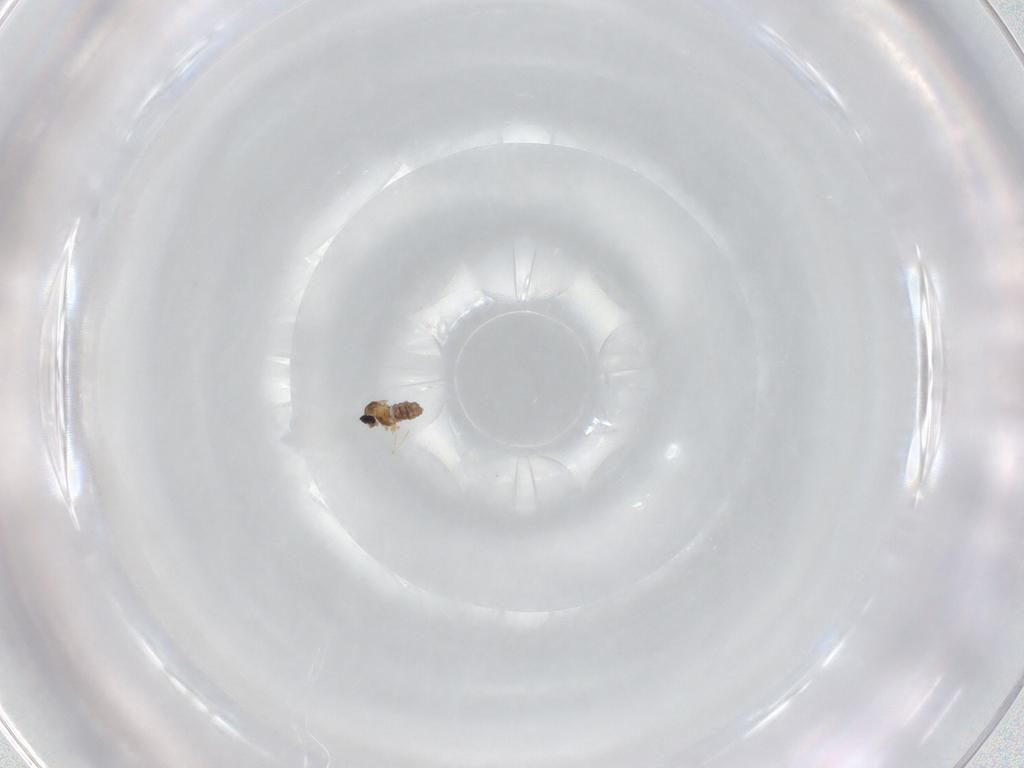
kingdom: Animalia
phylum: Arthropoda
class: Insecta
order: Diptera
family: Cecidomyiidae
